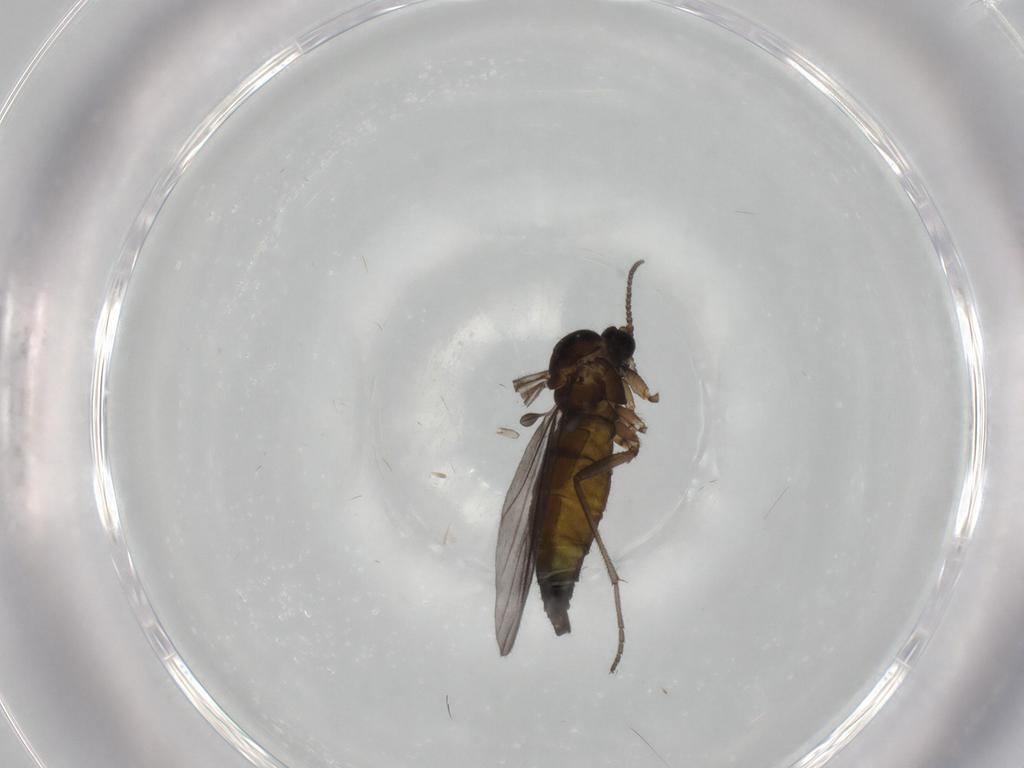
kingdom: Animalia
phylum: Arthropoda
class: Insecta
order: Diptera
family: Sciaridae
